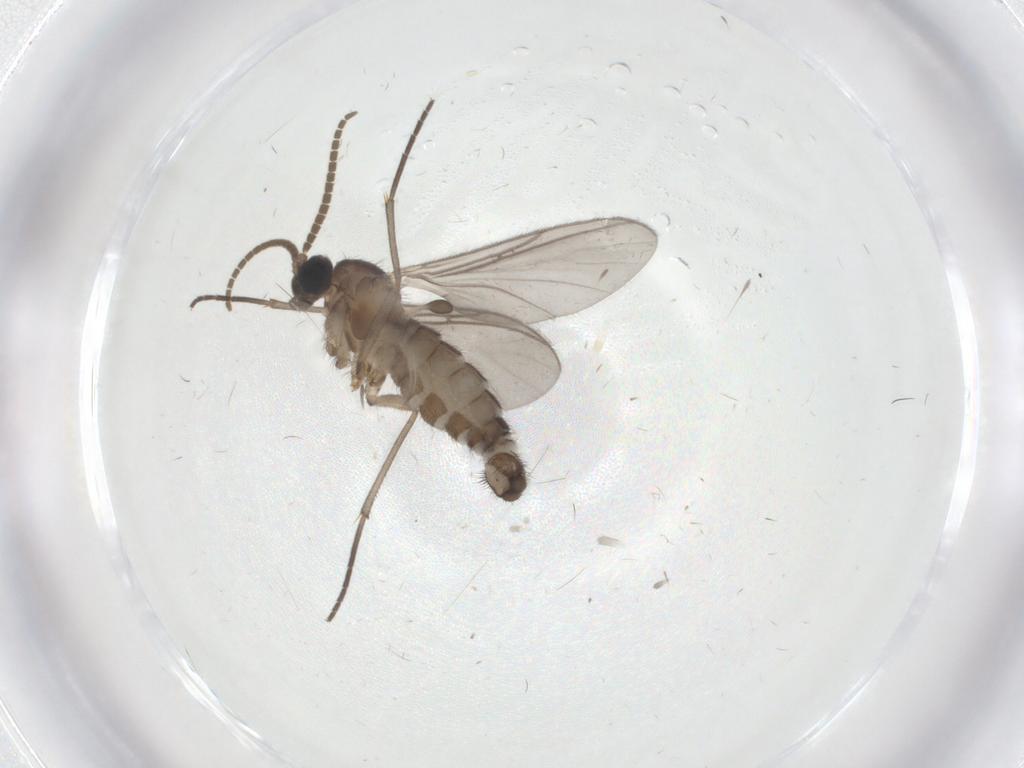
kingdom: Animalia
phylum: Arthropoda
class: Insecta
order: Diptera
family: Limoniidae
